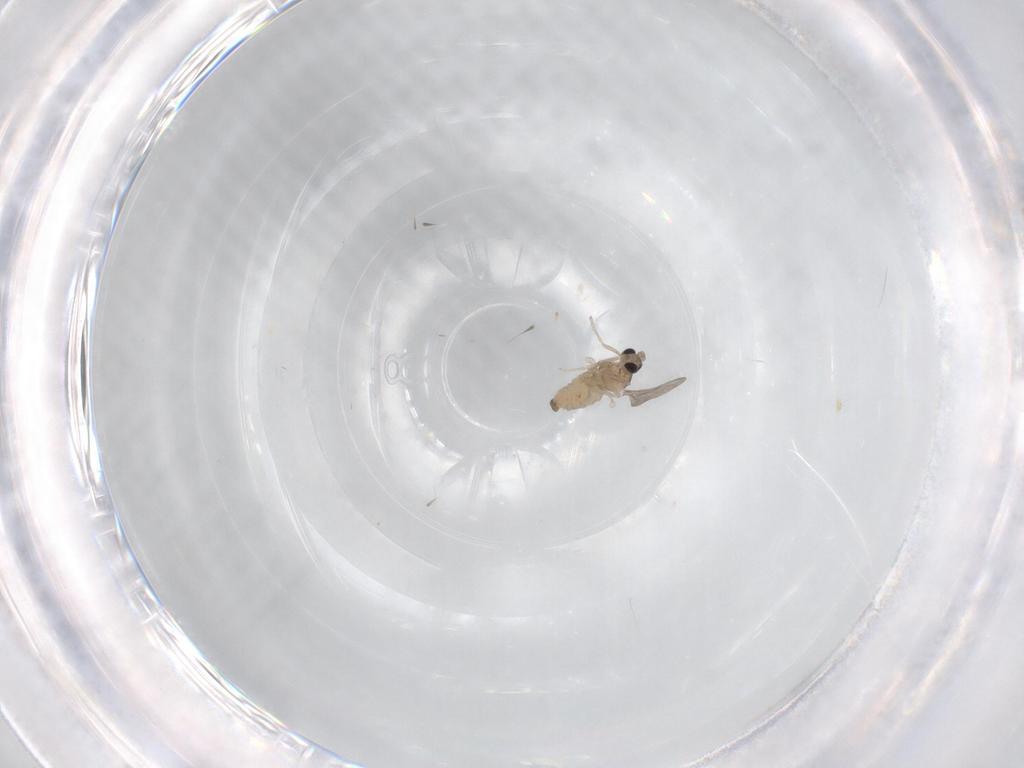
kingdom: Animalia
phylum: Arthropoda
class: Insecta
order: Diptera
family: Cecidomyiidae
